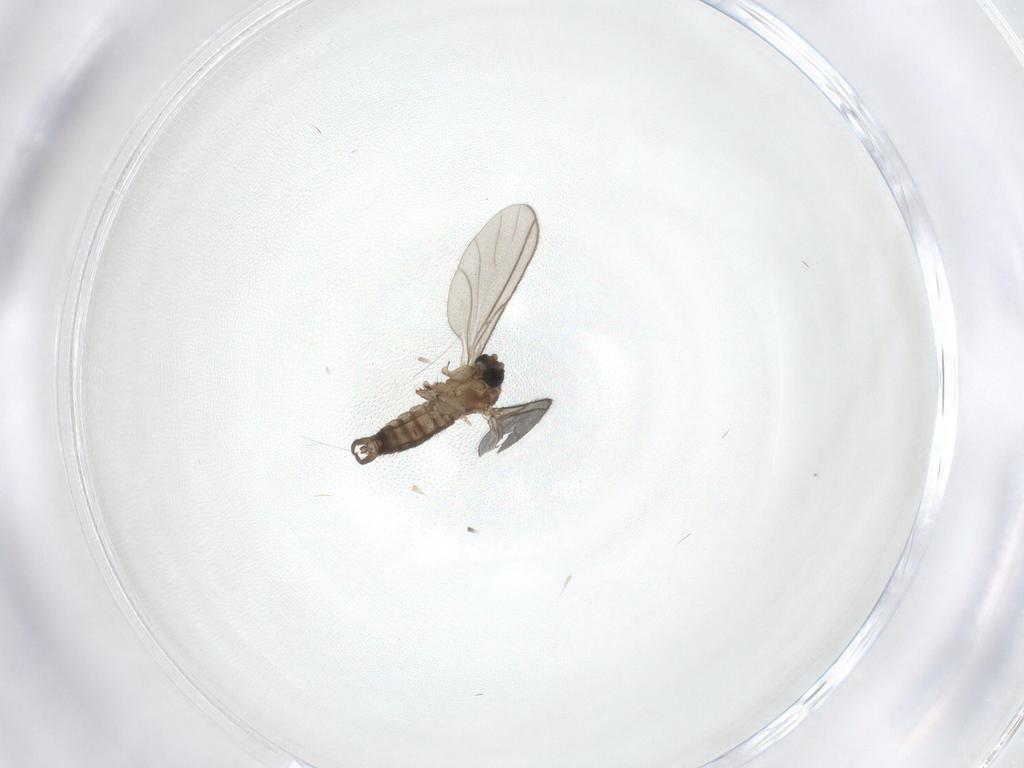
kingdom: Animalia
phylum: Arthropoda
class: Insecta
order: Diptera
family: Sciaridae
